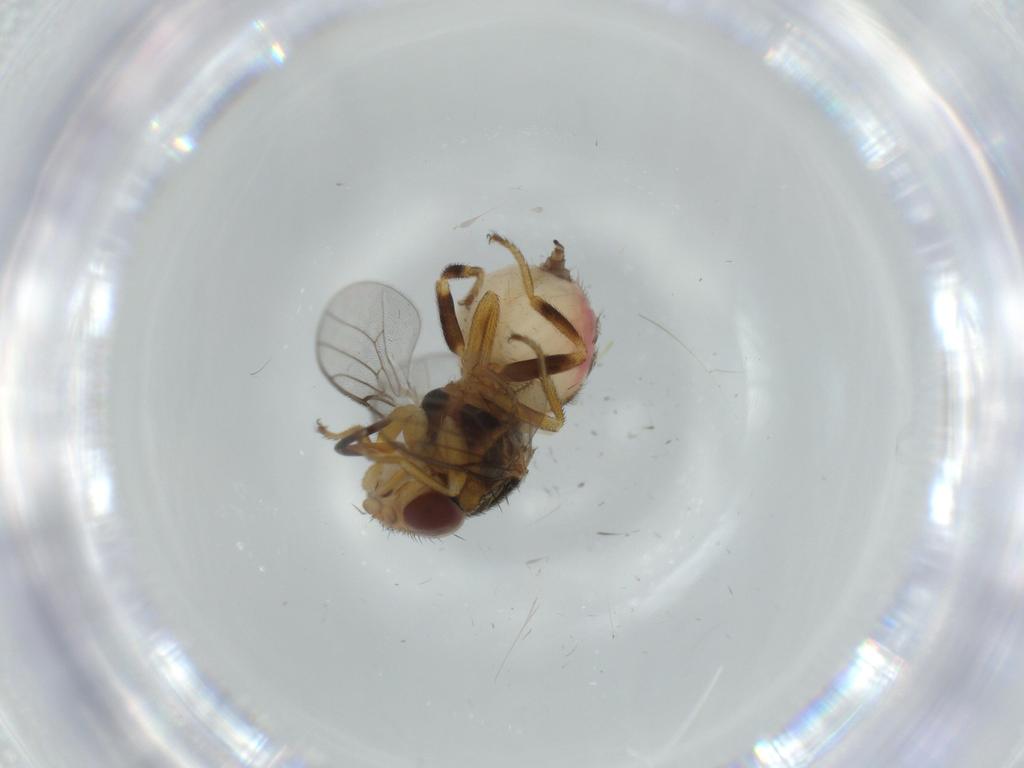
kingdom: Animalia
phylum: Arthropoda
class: Insecta
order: Diptera
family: Chloropidae
